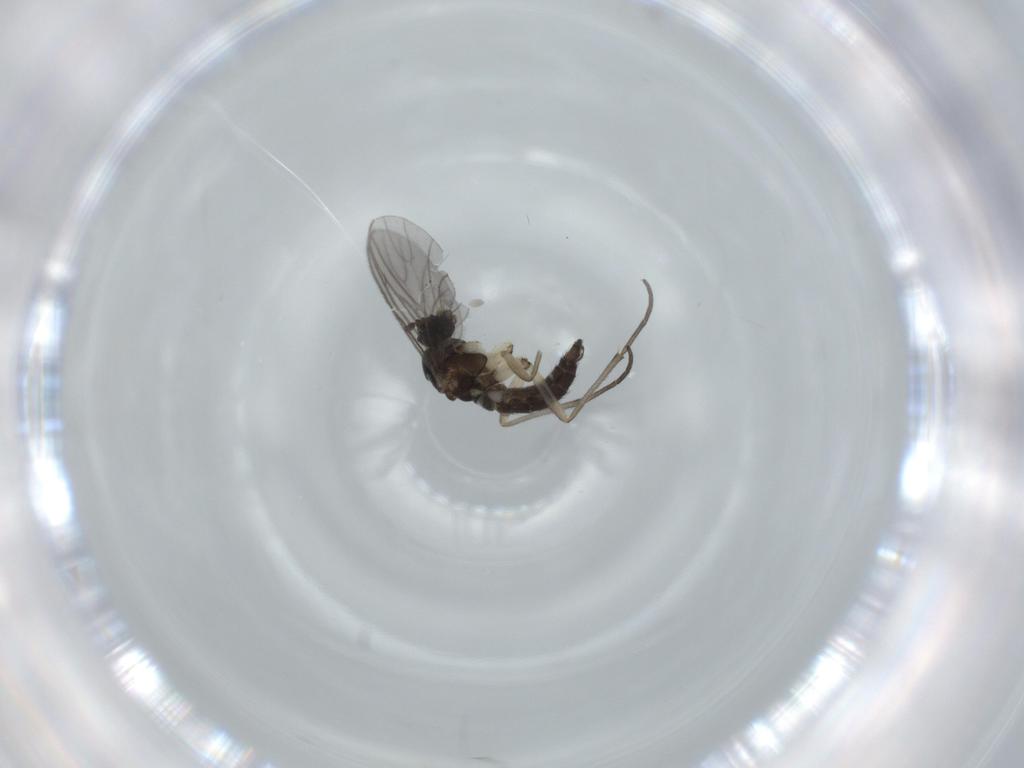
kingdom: Animalia
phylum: Arthropoda
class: Insecta
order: Diptera
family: Sciaridae
